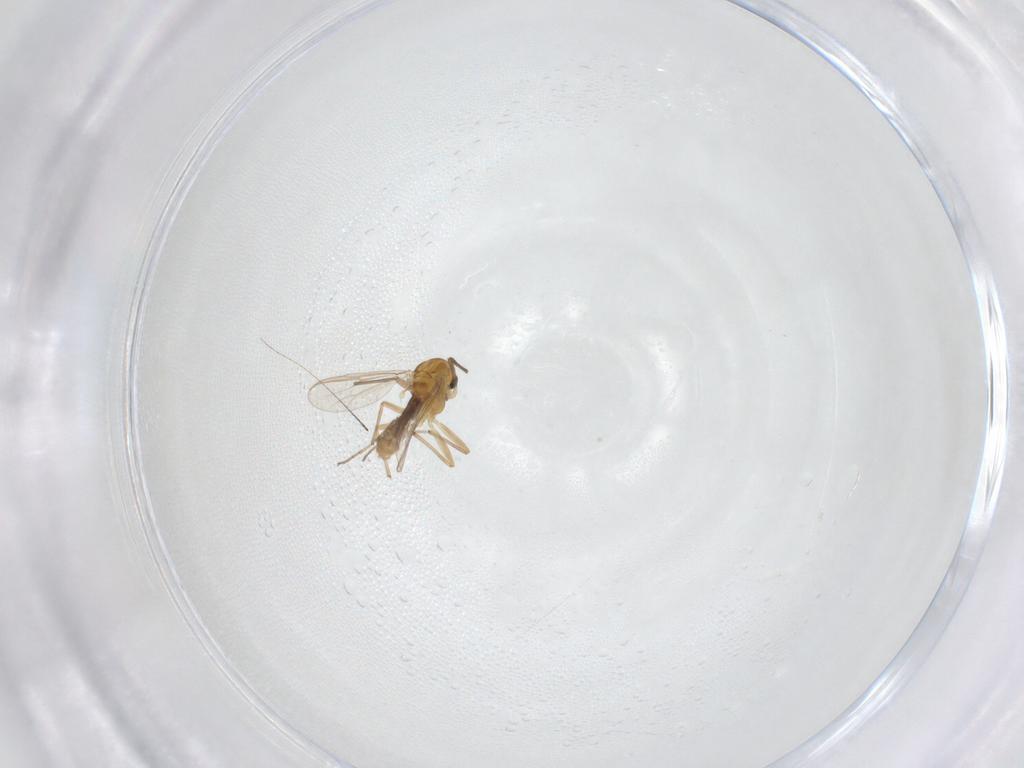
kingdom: Animalia
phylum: Arthropoda
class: Insecta
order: Diptera
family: Chironomidae
